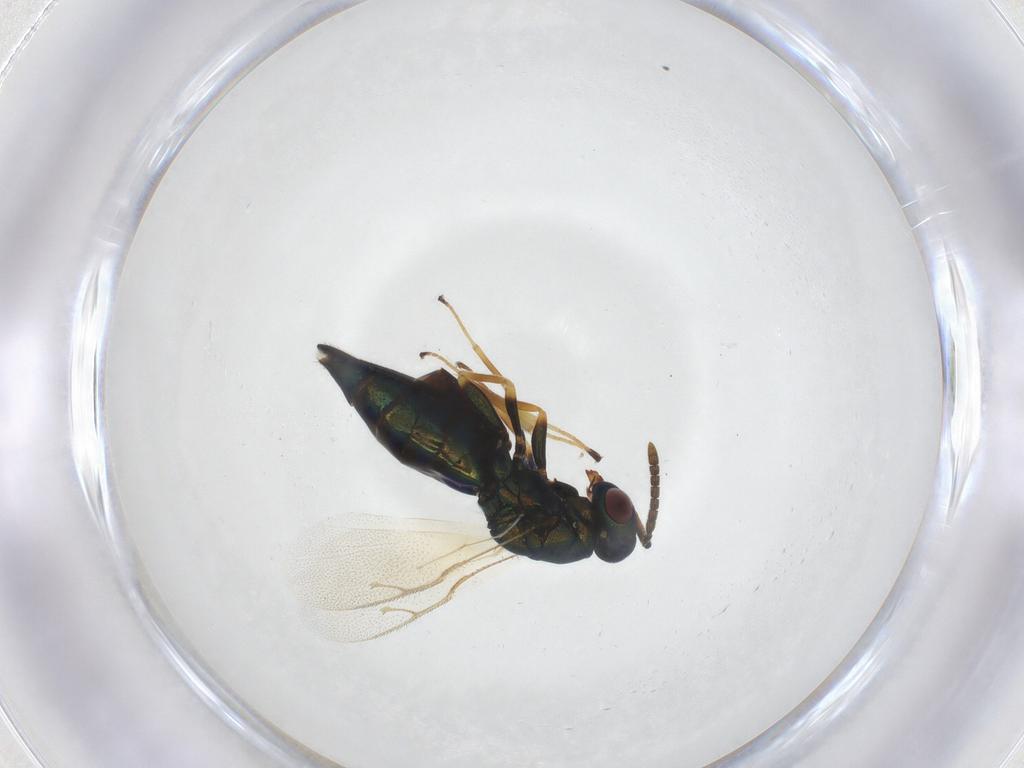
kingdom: Animalia
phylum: Arthropoda
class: Insecta
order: Hymenoptera
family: Pteromalidae
